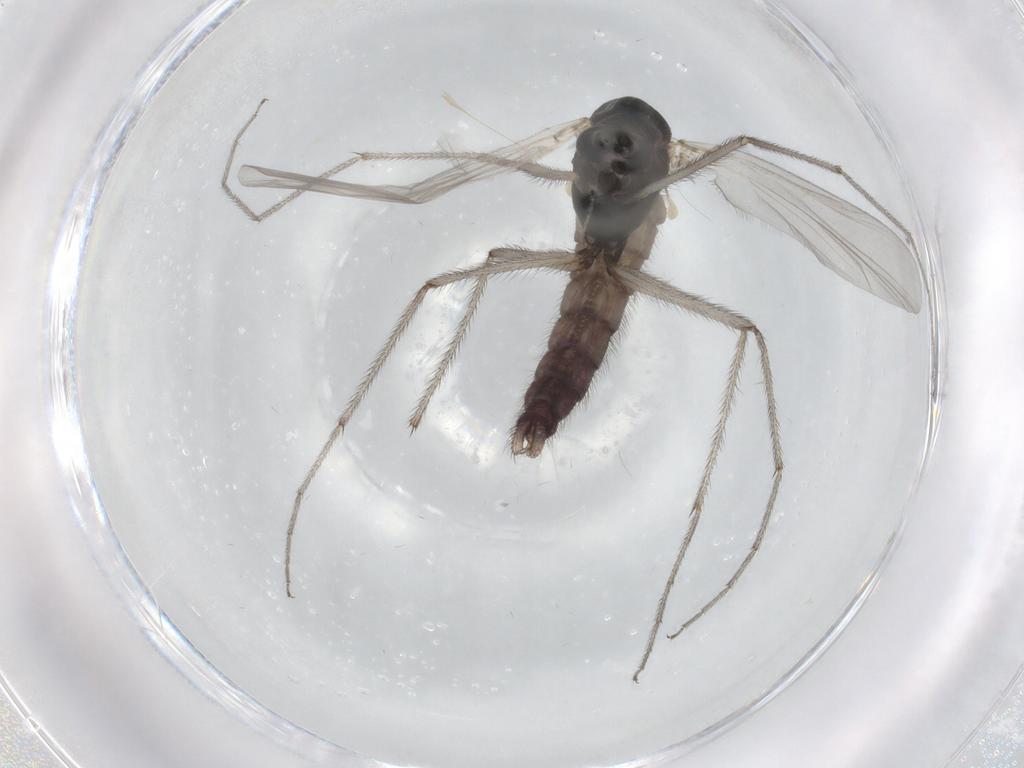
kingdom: Animalia
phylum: Arthropoda
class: Insecta
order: Diptera
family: Chironomidae
